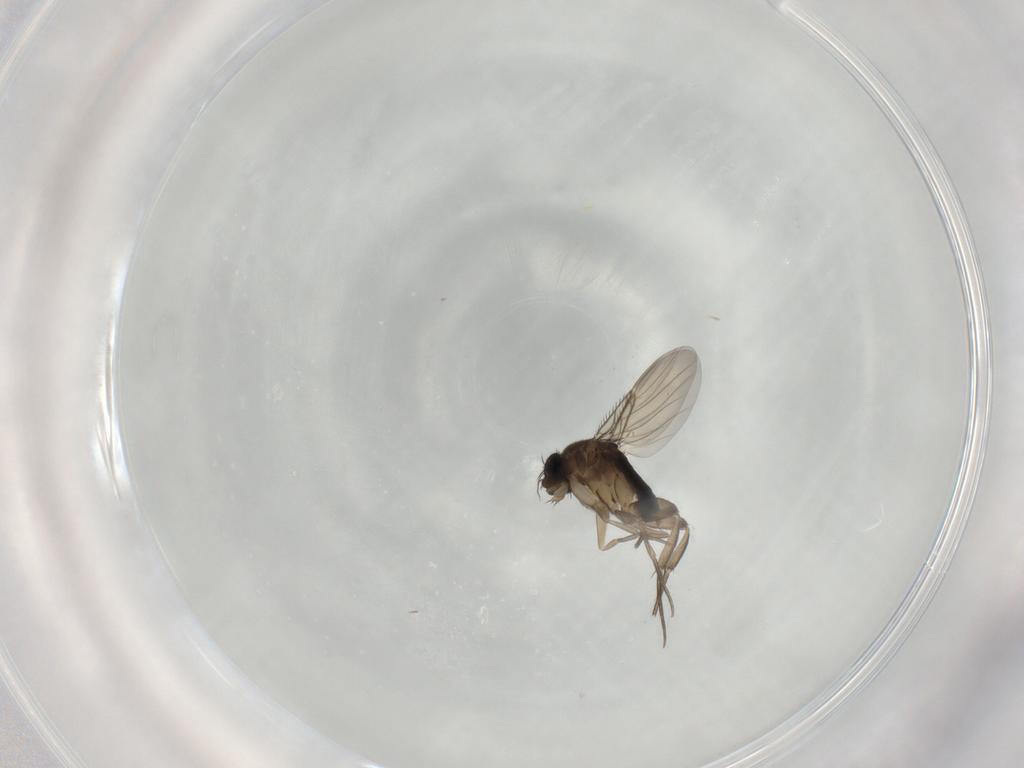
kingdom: Animalia
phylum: Arthropoda
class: Insecta
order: Diptera
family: Phoridae
